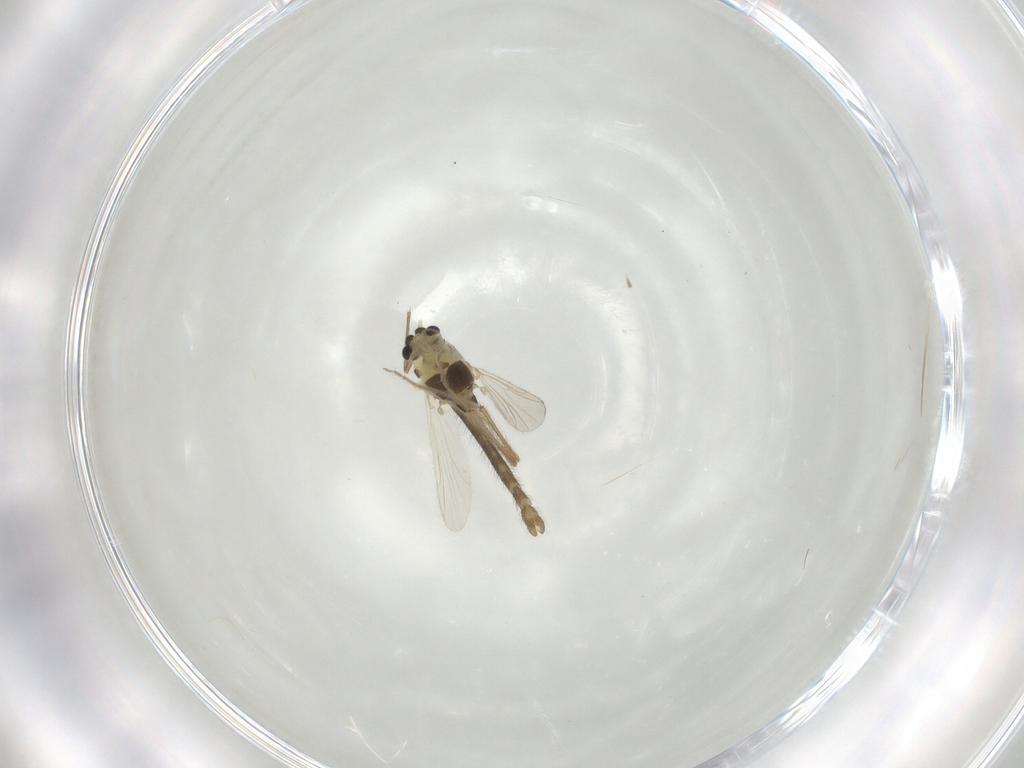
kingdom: Animalia
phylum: Arthropoda
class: Insecta
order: Diptera
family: Chironomidae
